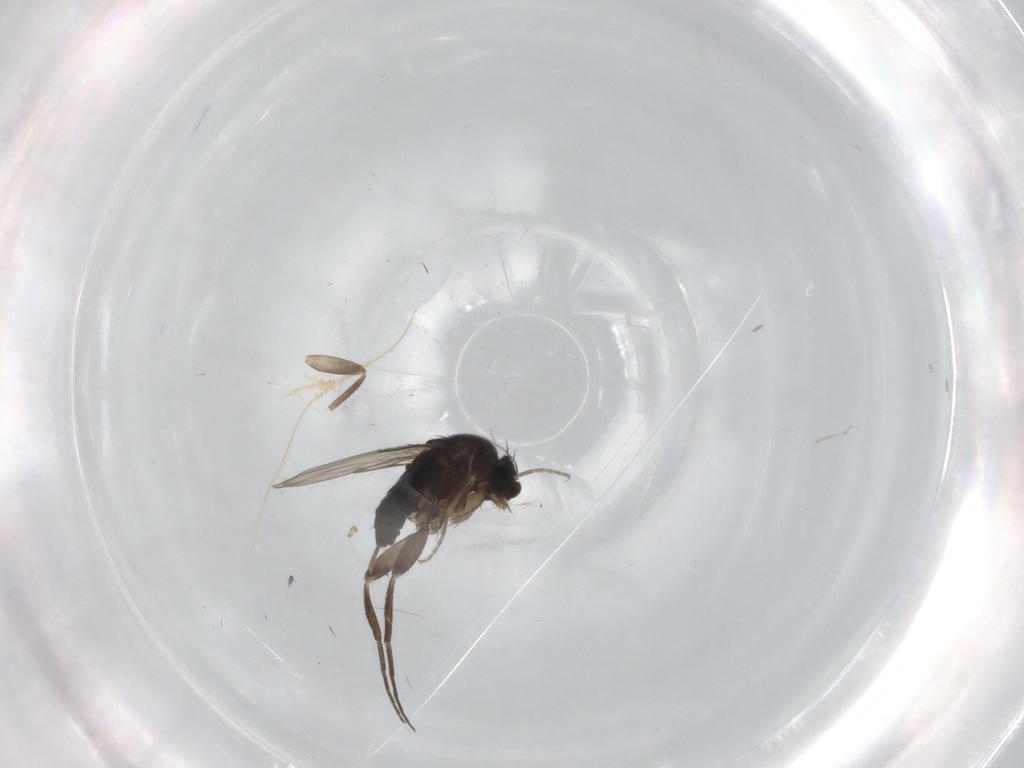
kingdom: Animalia
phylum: Arthropoda
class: Insecta
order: Diptera
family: Phoridae
